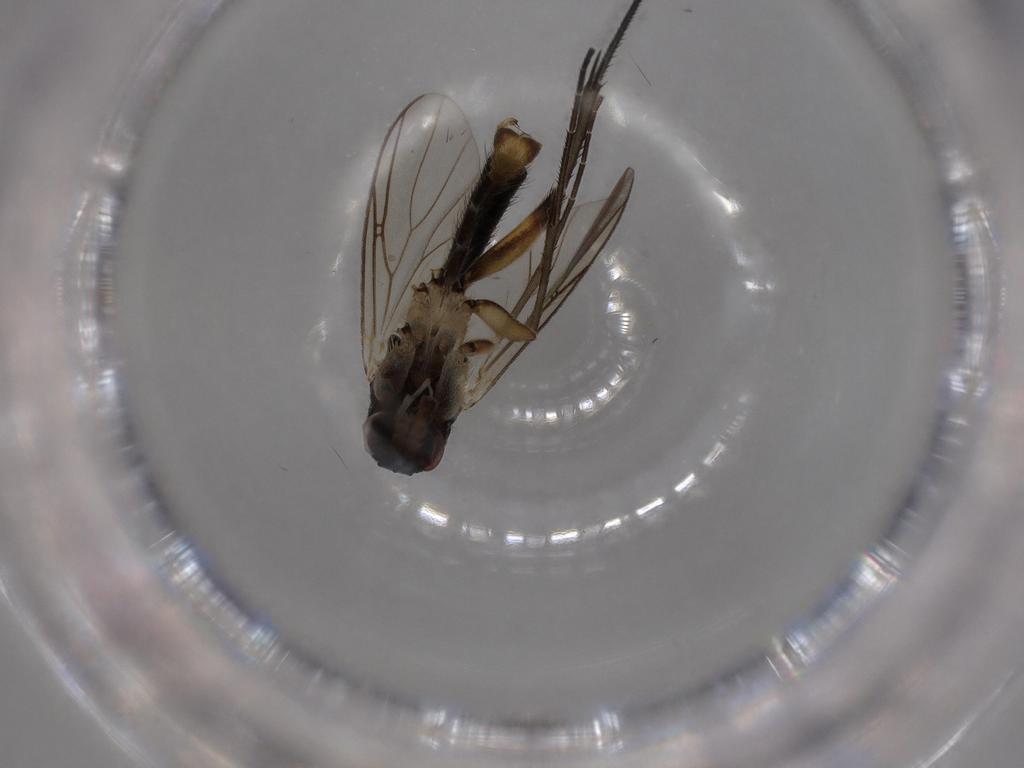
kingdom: Animalia
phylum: Arthropoda
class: Insecta
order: Diptera
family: Mycetophilidae
